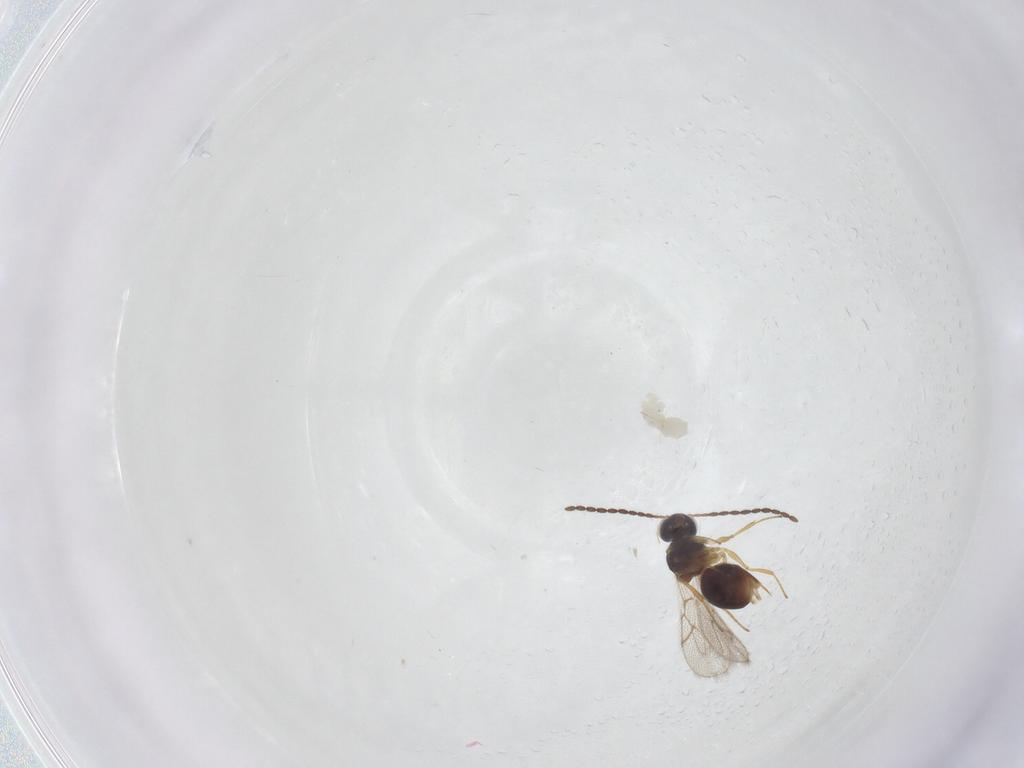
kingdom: Animalia
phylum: Arthropoda
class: Insecta
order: Hymenoptera
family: Figitidae
